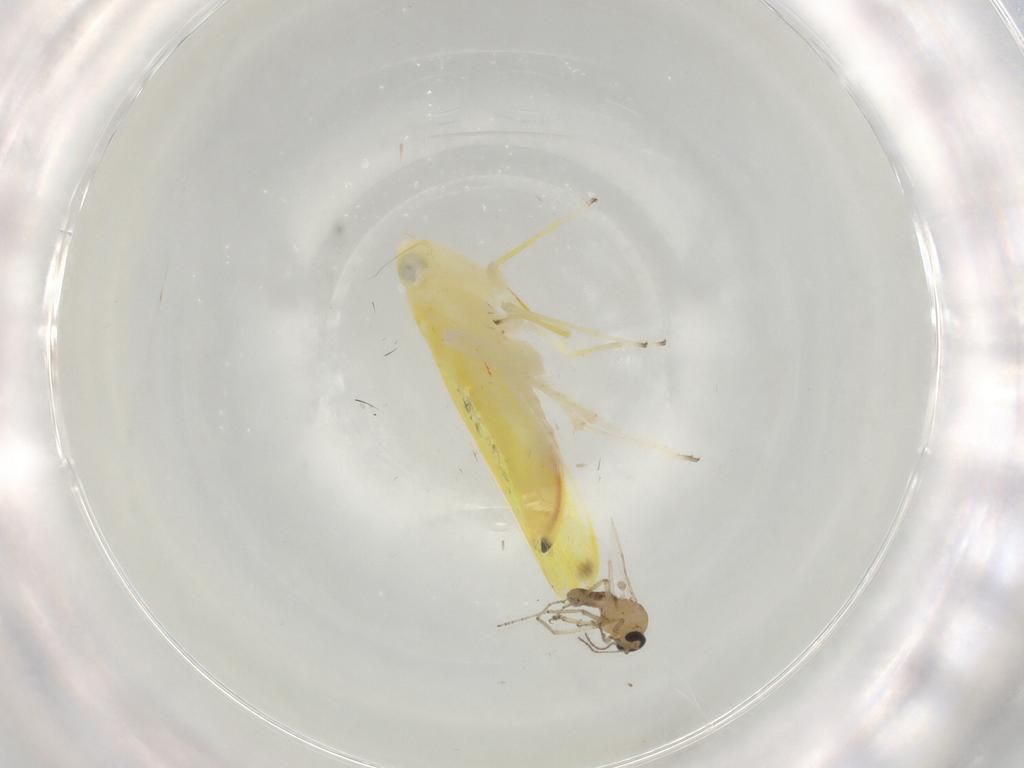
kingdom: Animalia
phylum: Arthropoda
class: Insecta
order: Hemiptera
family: Cicadellidae
